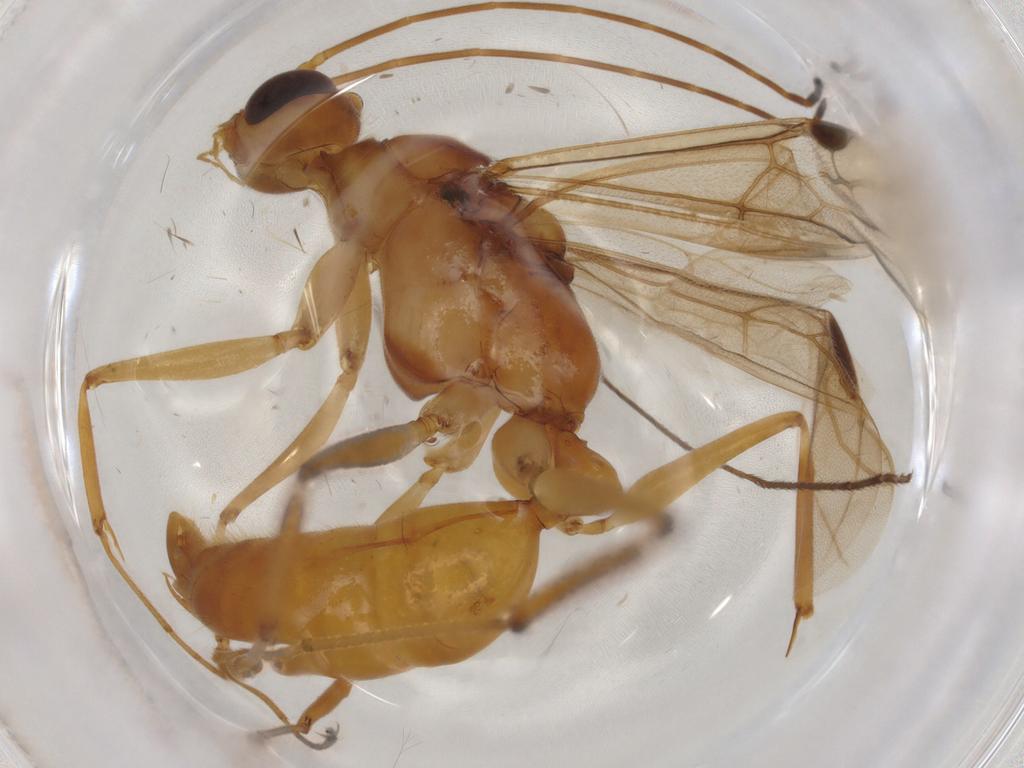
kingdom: Animalia
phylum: Arthropoda
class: Insecta
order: Hymenoptera
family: Formicidae
